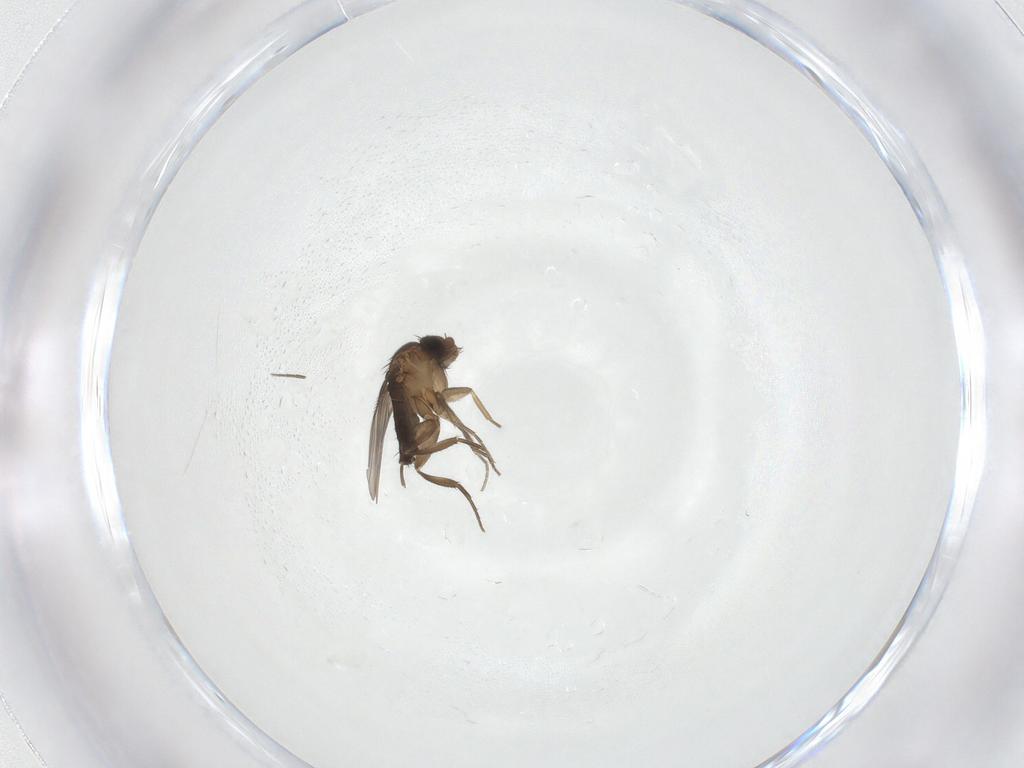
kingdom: Animalia
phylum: Arthropoda
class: Insecta
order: Diptera
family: Phoridae
